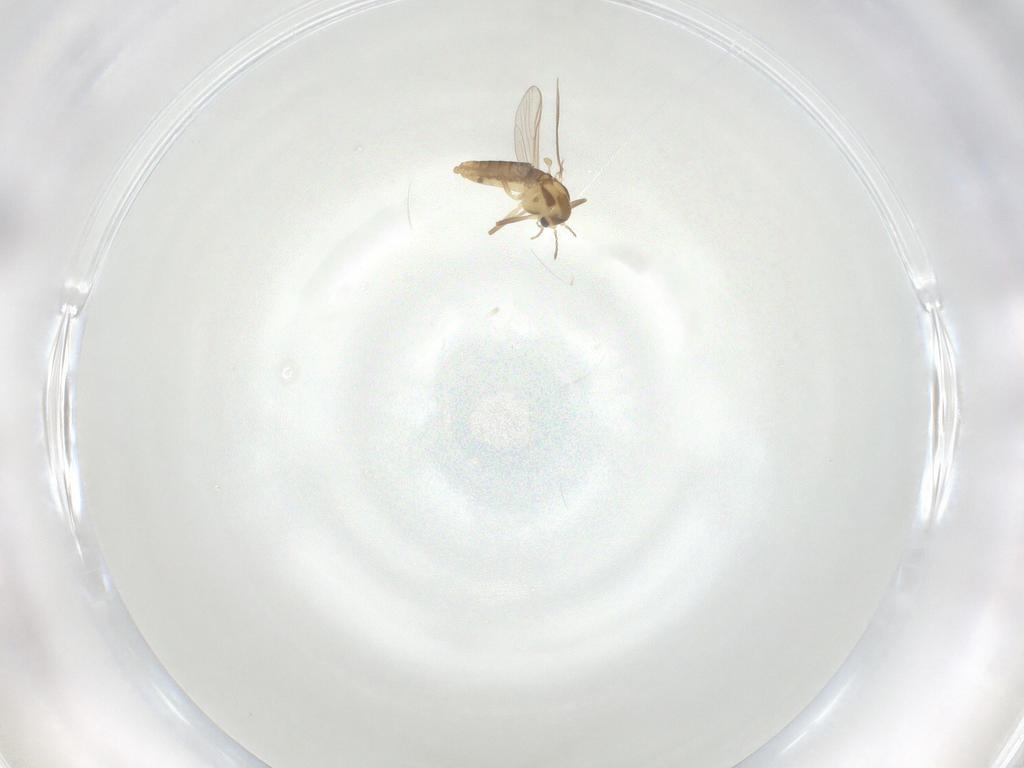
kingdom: Animalia
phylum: Arthropoda
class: Insecta
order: Diptera
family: Chironomidae
